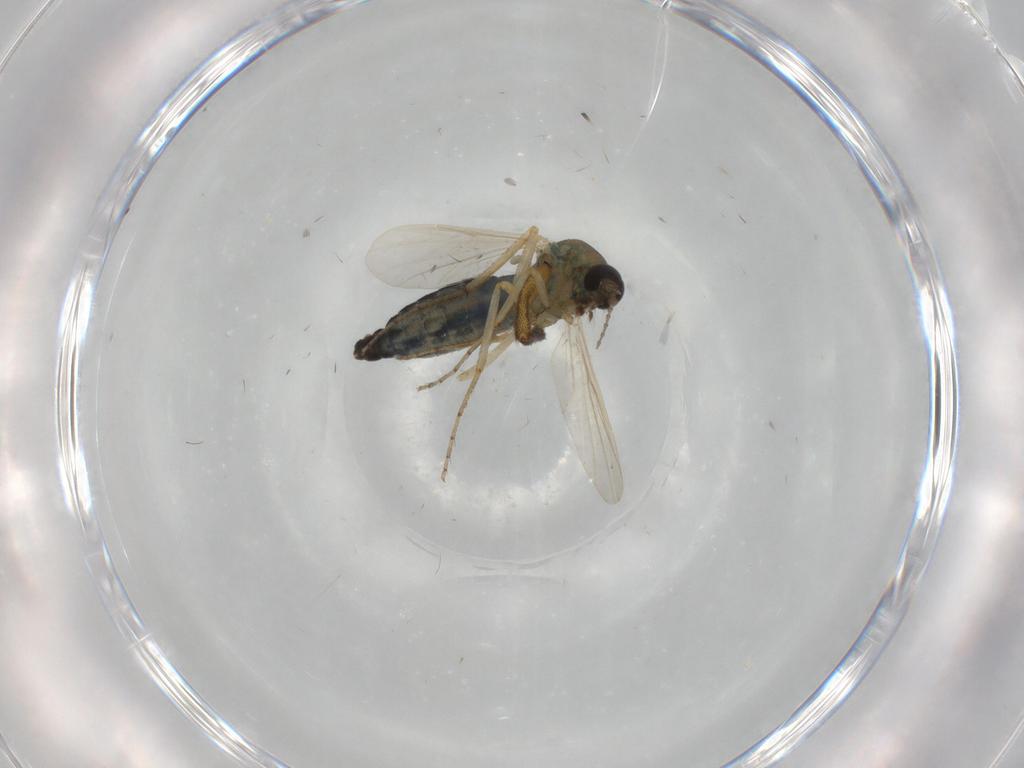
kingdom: Animalia
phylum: Arthropoda
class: Insecta
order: Diptera
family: Ceratopogonidae
